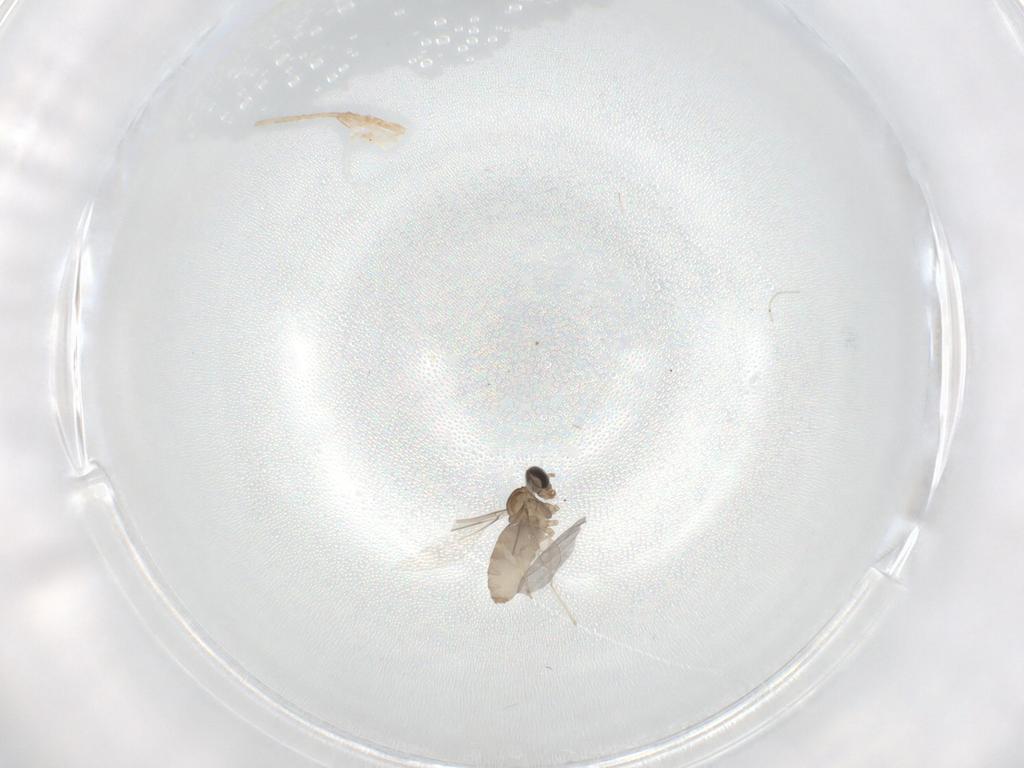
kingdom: Animalia
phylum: Arthropoda
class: Insecta
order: Diptera
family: Cecidomyiidae
